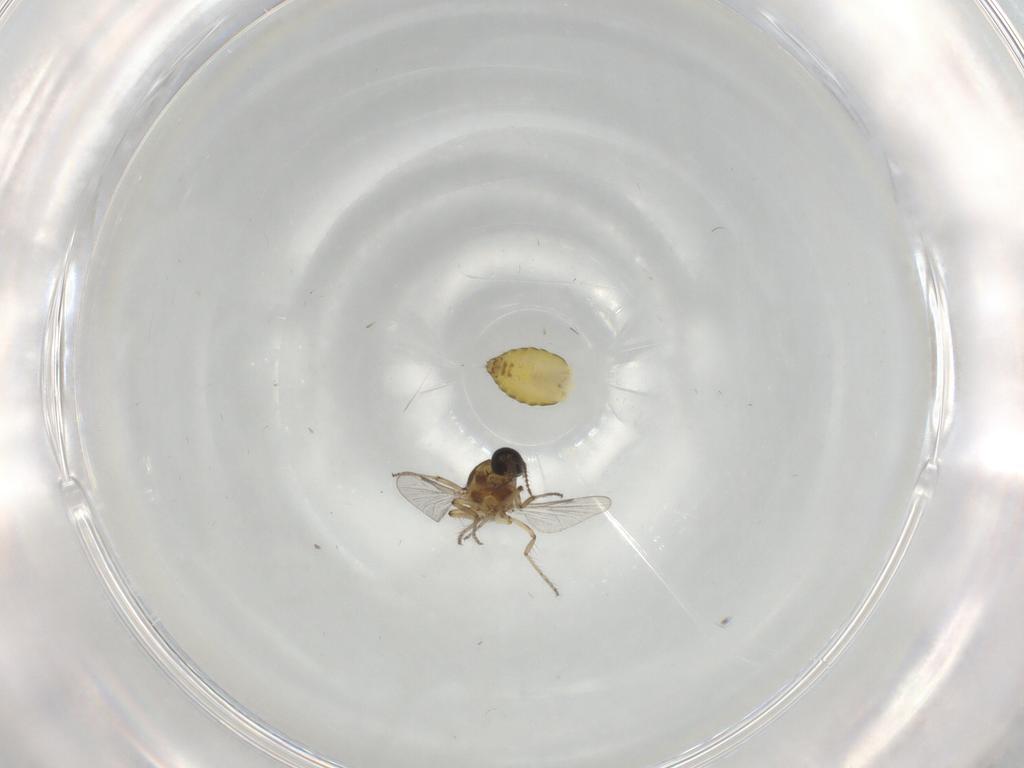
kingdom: Animalia
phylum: Arthropoda
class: Insecta
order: Diptera
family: Ceratopogonidae
